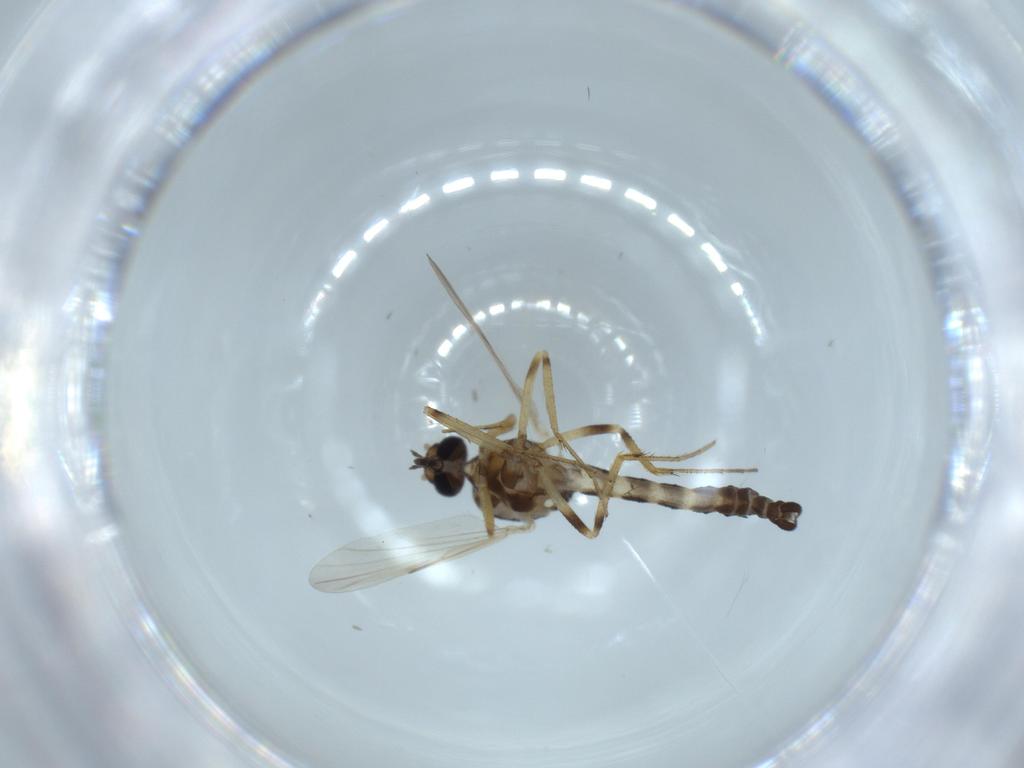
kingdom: Animalia
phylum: Arthropoda
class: Insecta
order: Diptera
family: Ceratopogonidae
